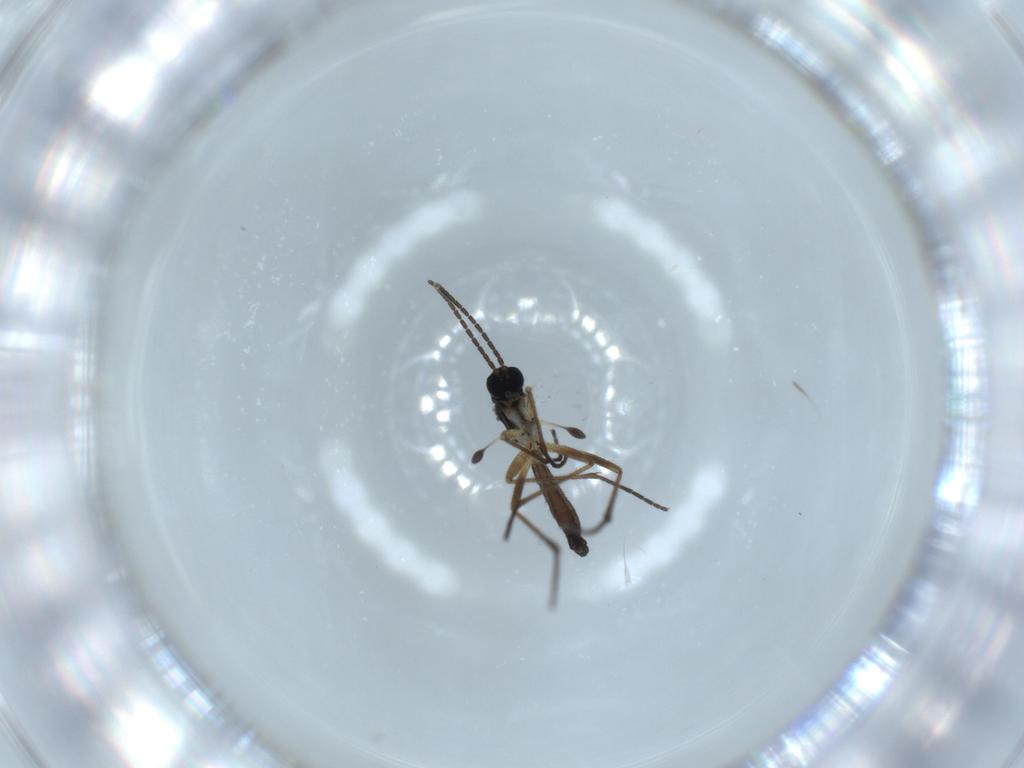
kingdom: Animalia
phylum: Arthropoda
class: Insecta
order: Diptera
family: Sciaridae
